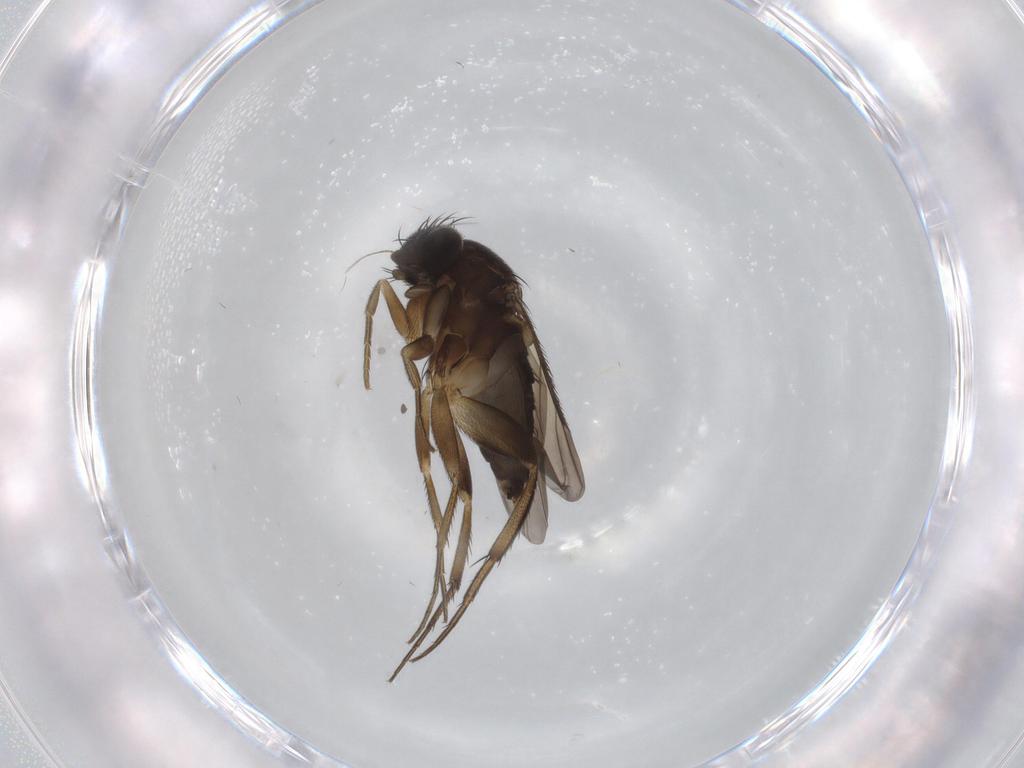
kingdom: Animalia
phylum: Arthropoda
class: Insecta
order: Diptera
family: Phoridae
